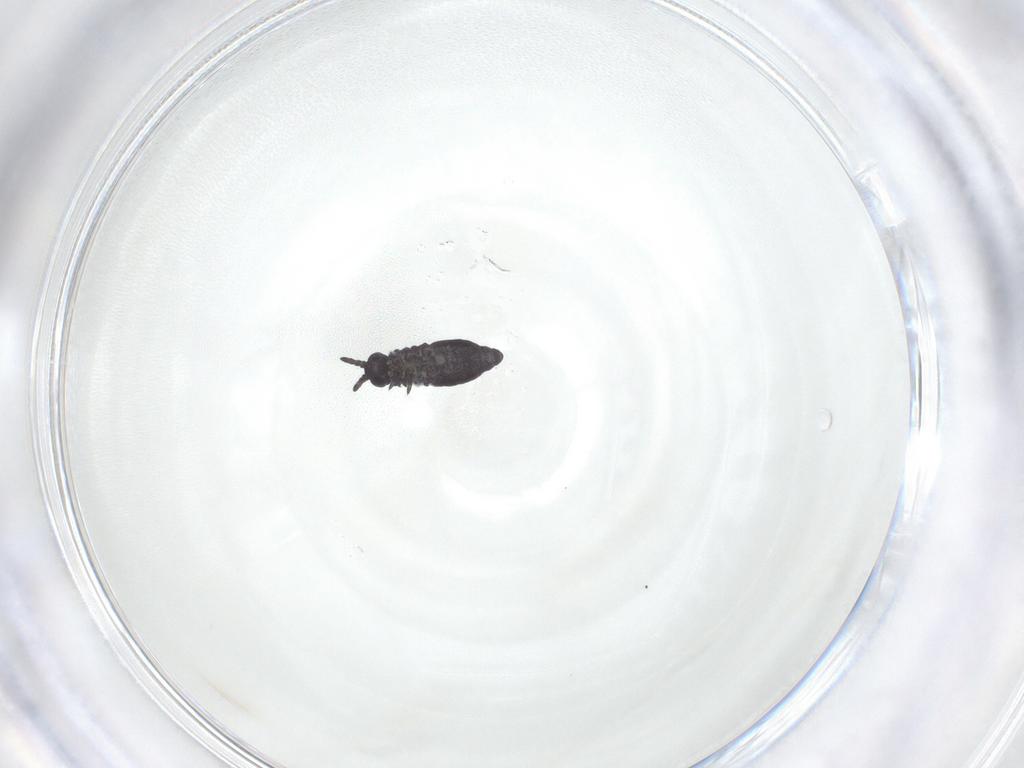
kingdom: Animalia
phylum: Arthropoda
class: Collembola
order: Poduromorpha
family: Hypogastruridae
